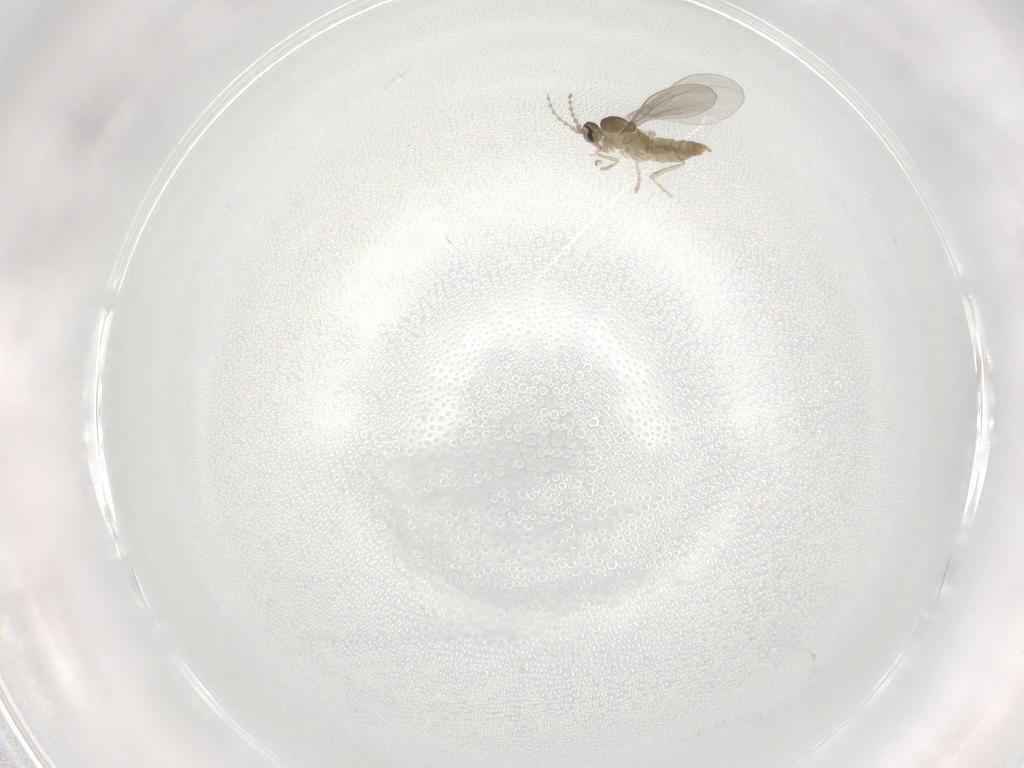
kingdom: Animalia
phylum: Arthropoda
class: Insecta
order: Diptera
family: Cecidomyiidae
